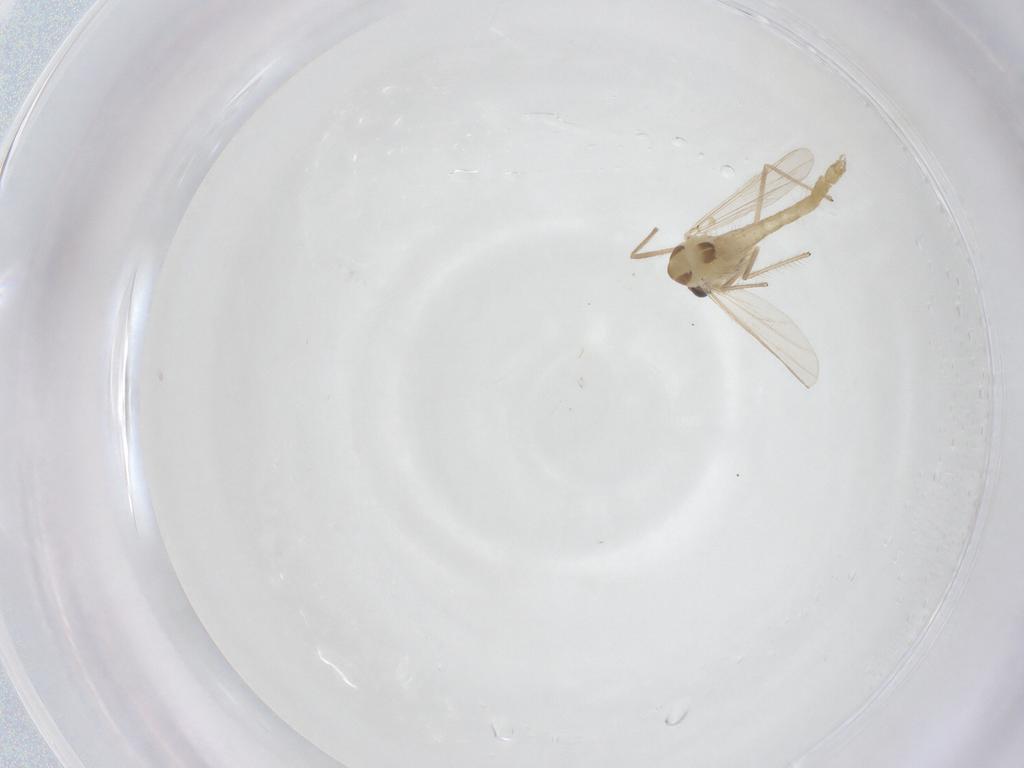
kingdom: Animalia
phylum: Arthropoda
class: Insecta
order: Diptera
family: Chironomidae
